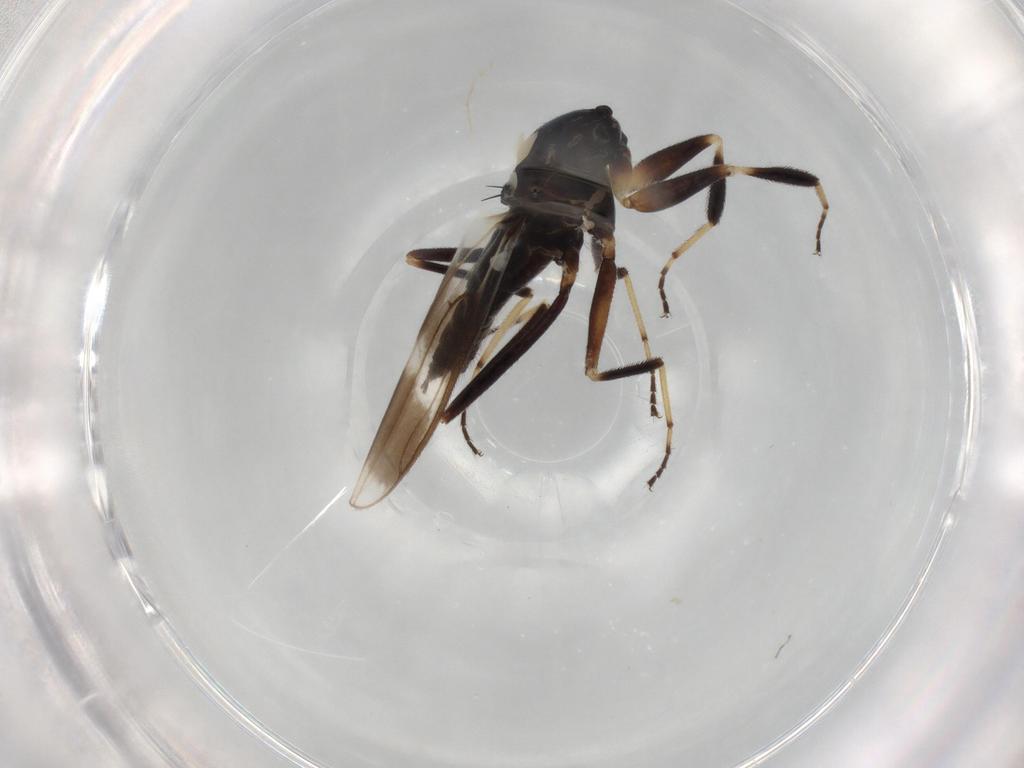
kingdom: Animalia
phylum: Arthropoda
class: Insecta
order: Diptera
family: Hybotidae
